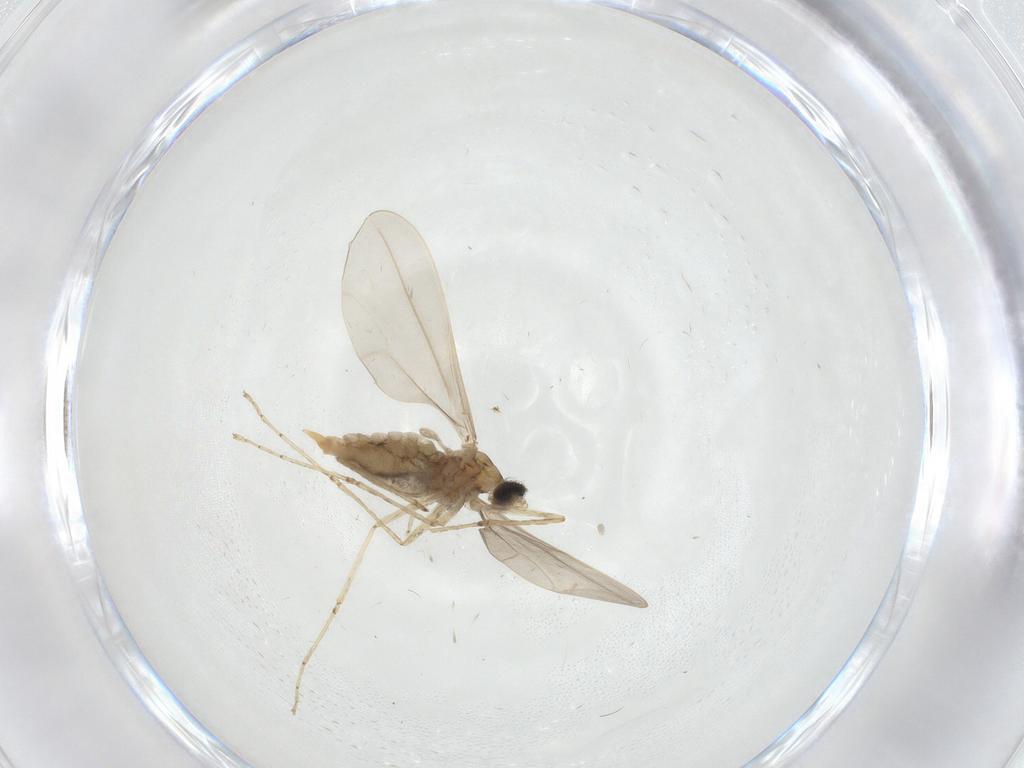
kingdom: Animalia
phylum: Arthropoda
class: Insecta
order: Diptera
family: Cecidomyiidae
